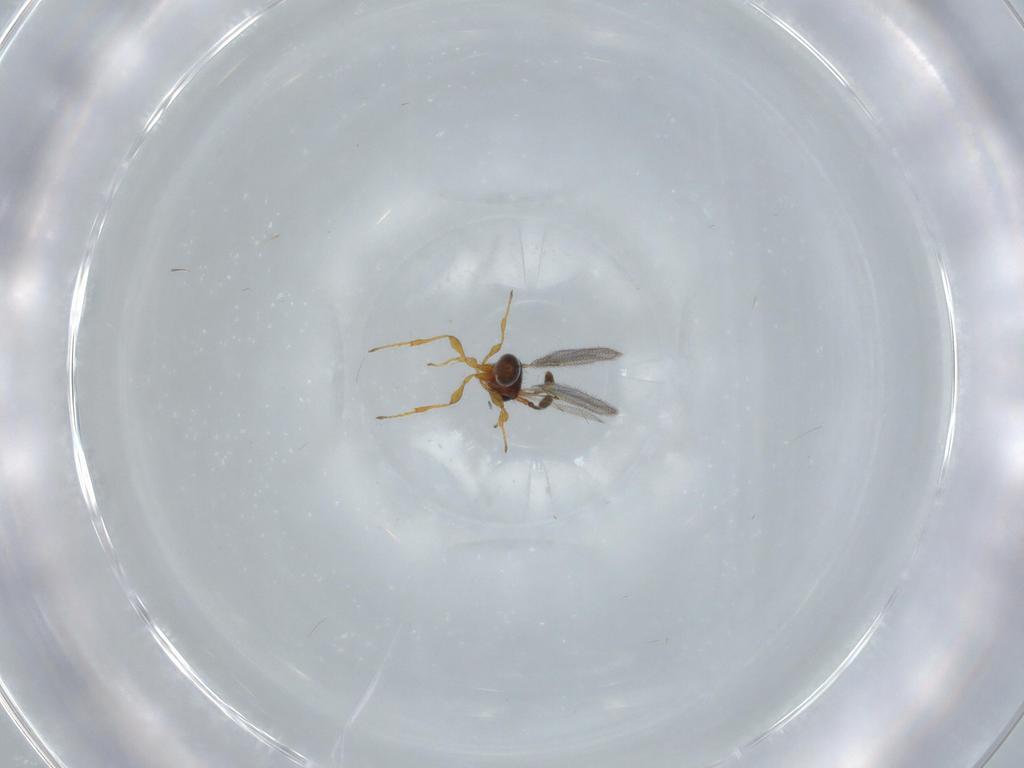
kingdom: Animalia
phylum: Arthropoda
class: Insecta
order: Hymenoptera
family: Diapriidae
